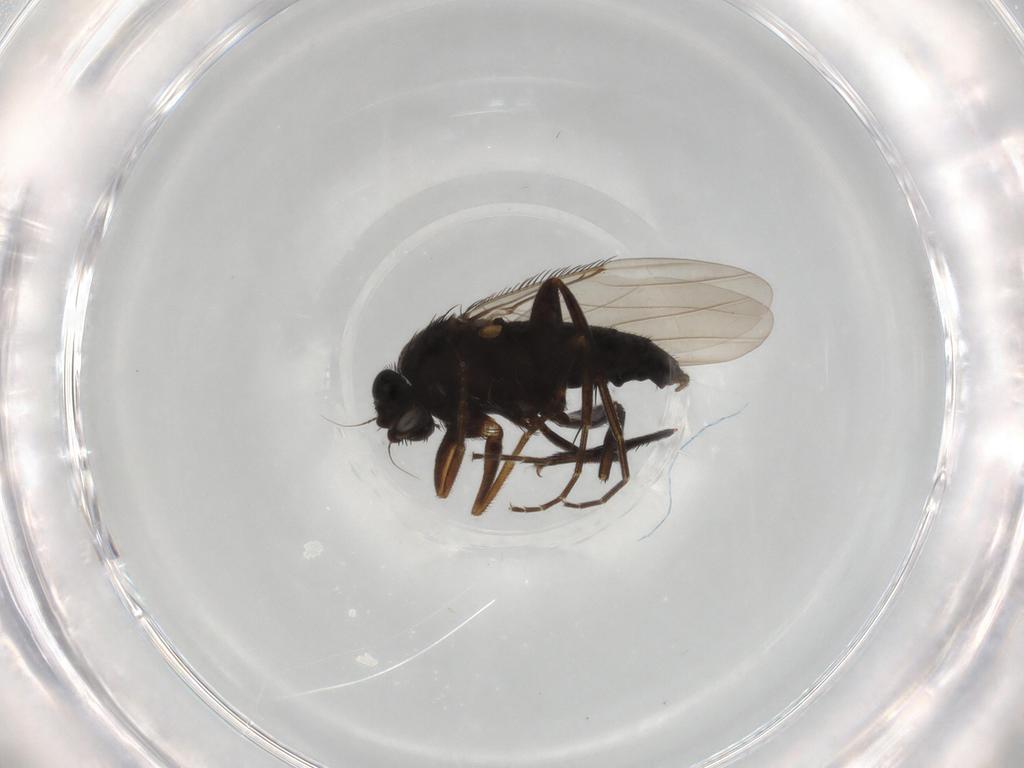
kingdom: Animalia
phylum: Arthropoda
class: Insecta
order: Diptera
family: Phoridae
